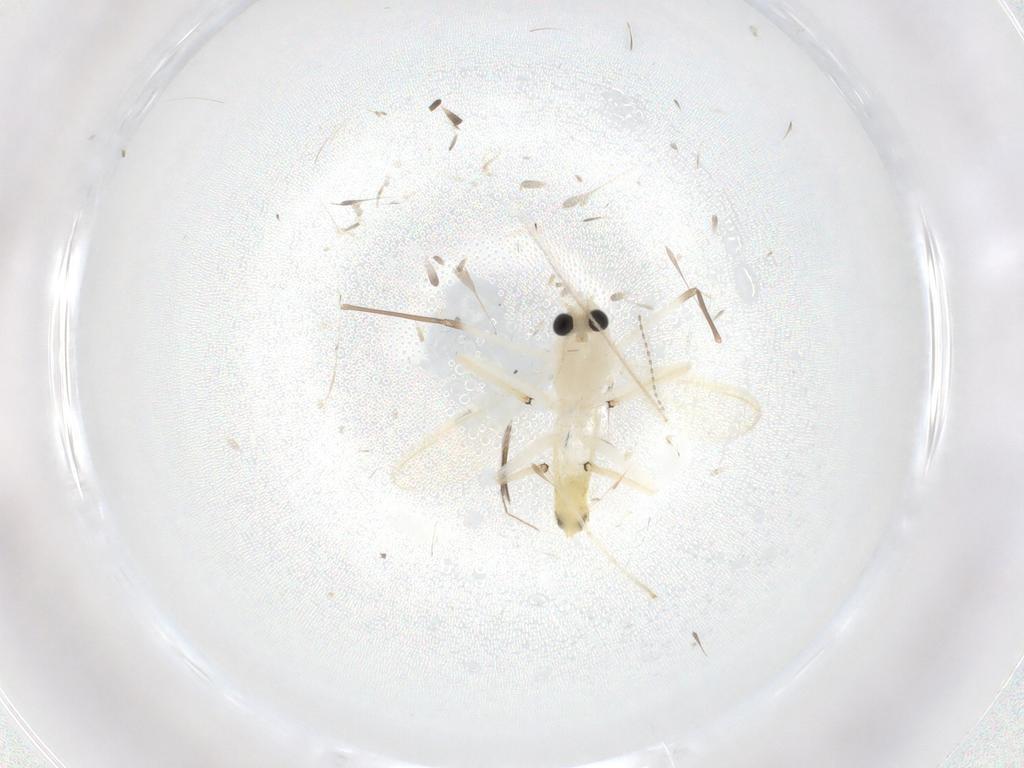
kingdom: Animalia
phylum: Arthropoda
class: Insecta
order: Diptera
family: Chironomidae
